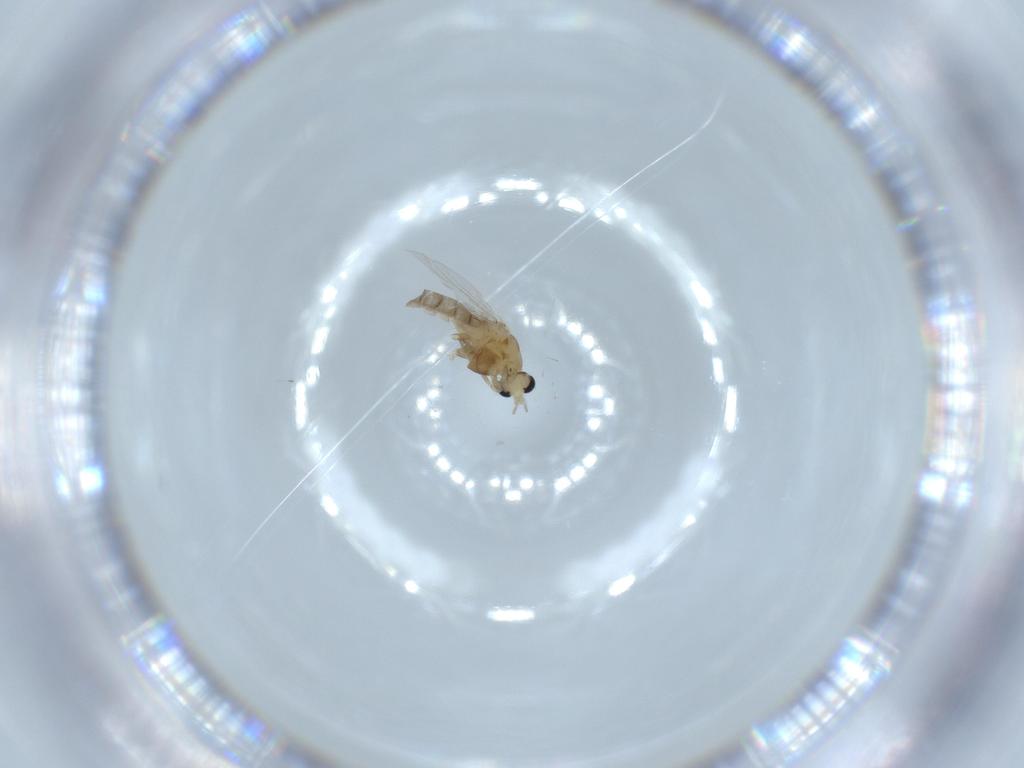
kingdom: Animalia
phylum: Arthropoda
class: Insecta
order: Diptera
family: Chironomidae
